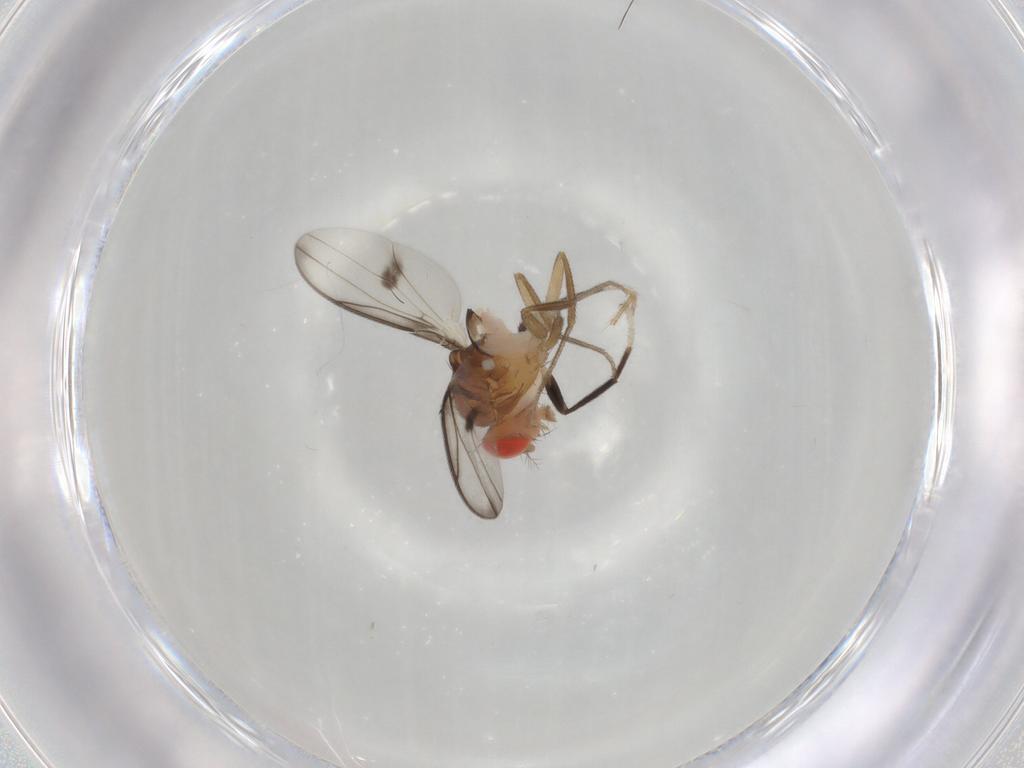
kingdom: Animalia
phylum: Arthropoda
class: Insecta
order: Diptera
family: Drosophilidae
